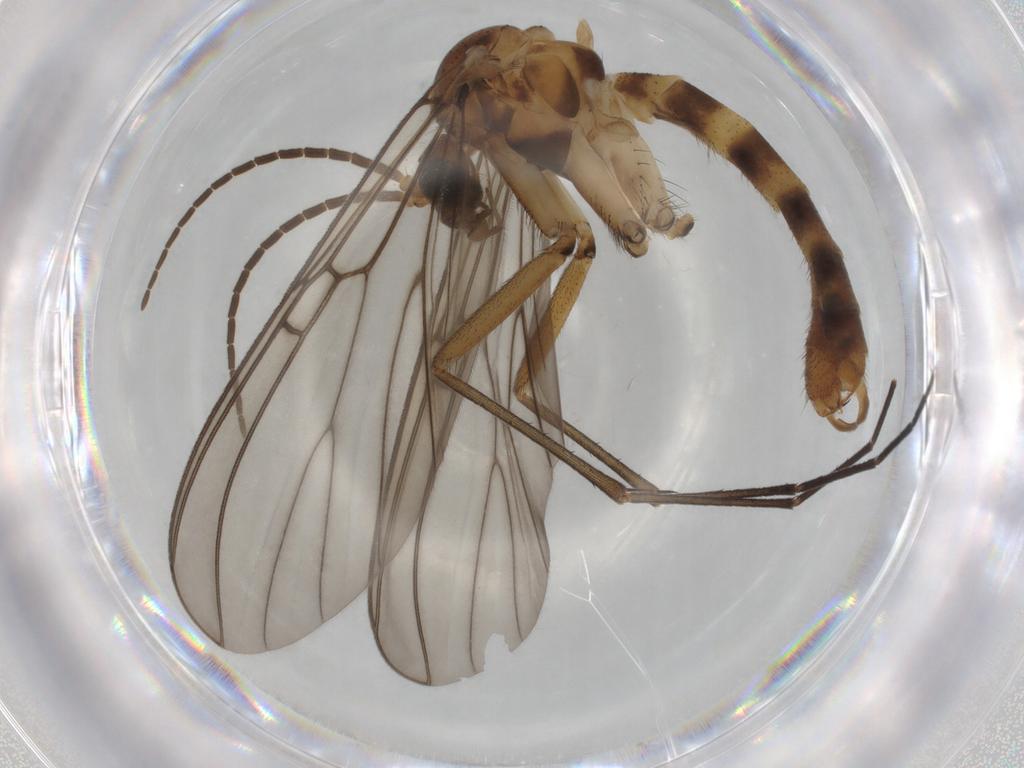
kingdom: Animalia
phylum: Arthropoda
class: Insecta
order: Diptera
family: Mycetophilidae
